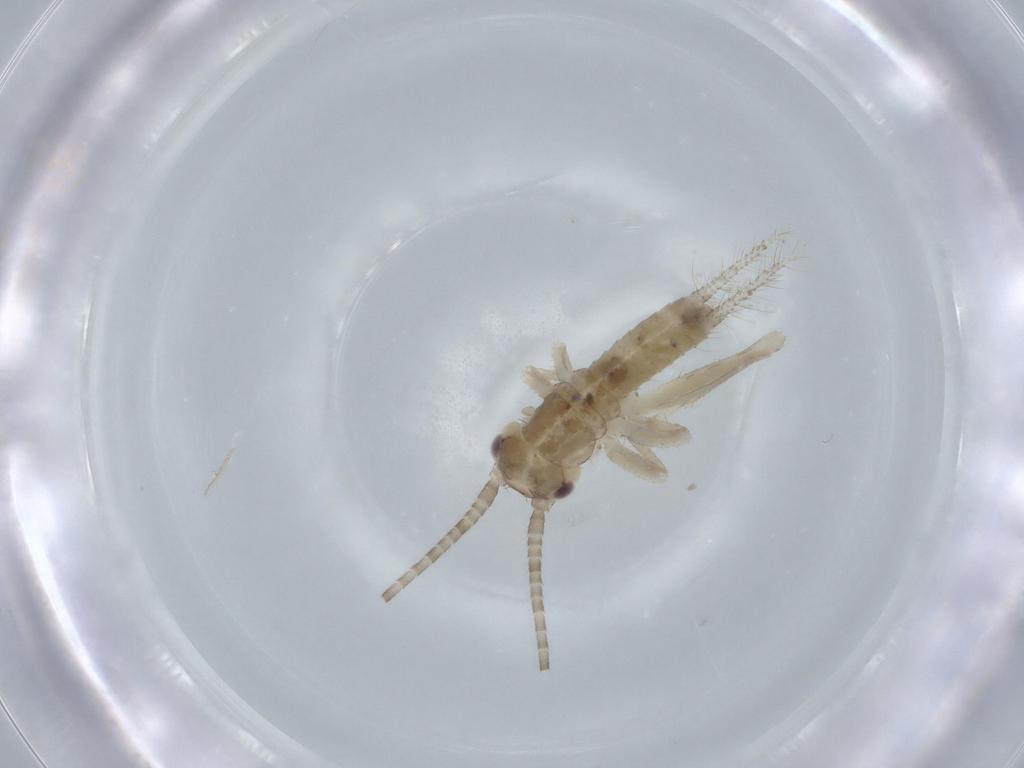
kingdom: Animalia
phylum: Arthropoda
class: Insecta
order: Orthoptera
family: Gryllidae
